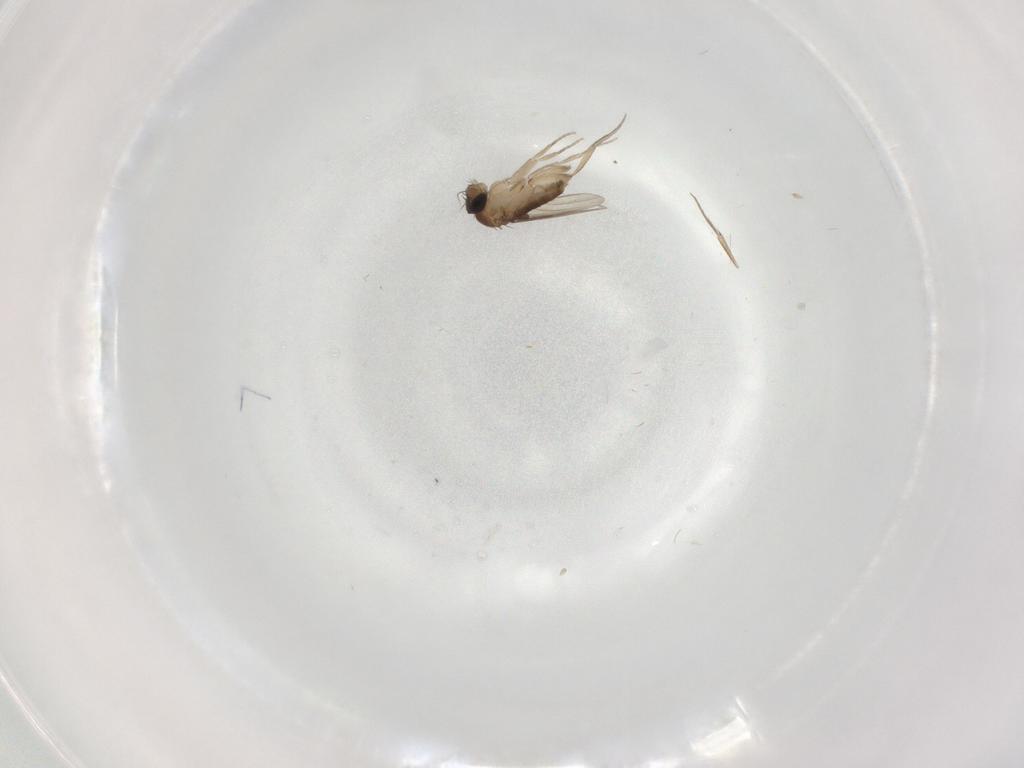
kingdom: Animalia
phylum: Arthropoda
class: Insecta
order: Diptera
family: Phoridae
